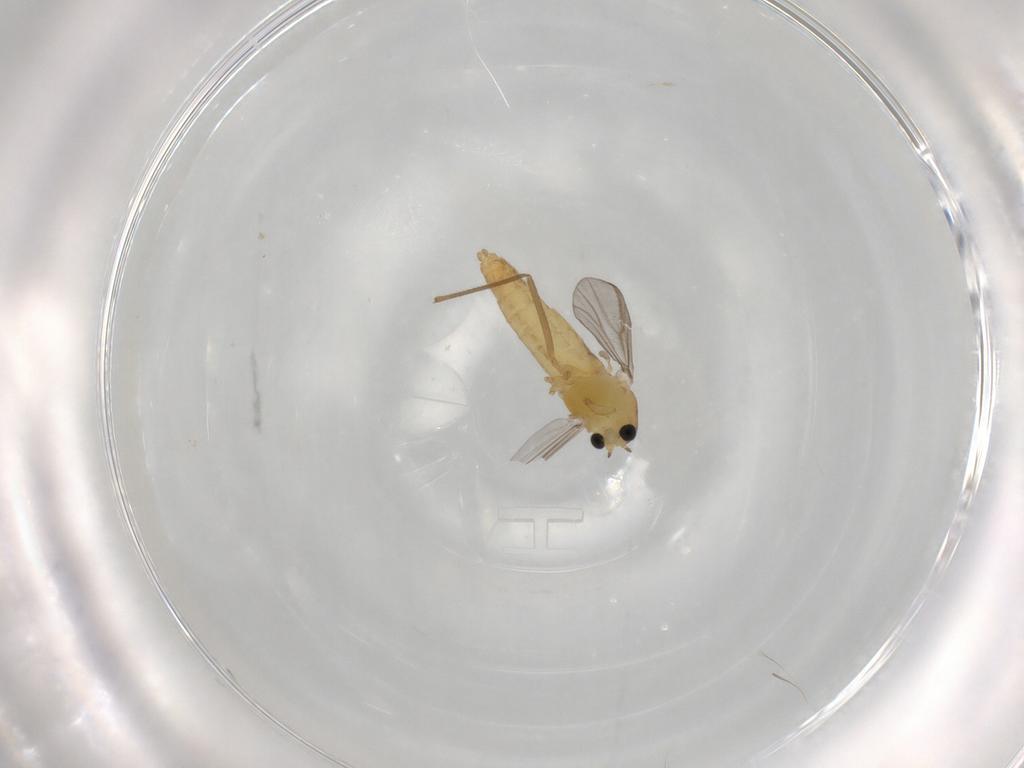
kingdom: Animalia
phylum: Arthropoda
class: Insecta
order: Diptera
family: Chironomidae
